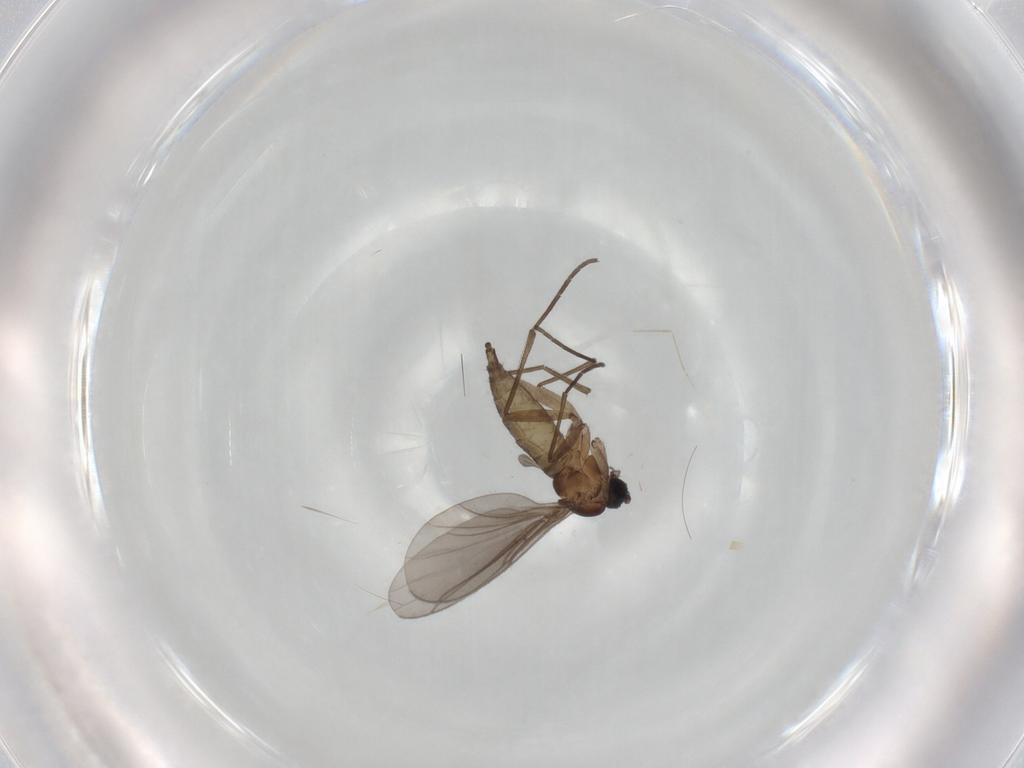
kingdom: Animalia
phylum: Arthropoda
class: Insecta
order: Diptera
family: Sciaridae
